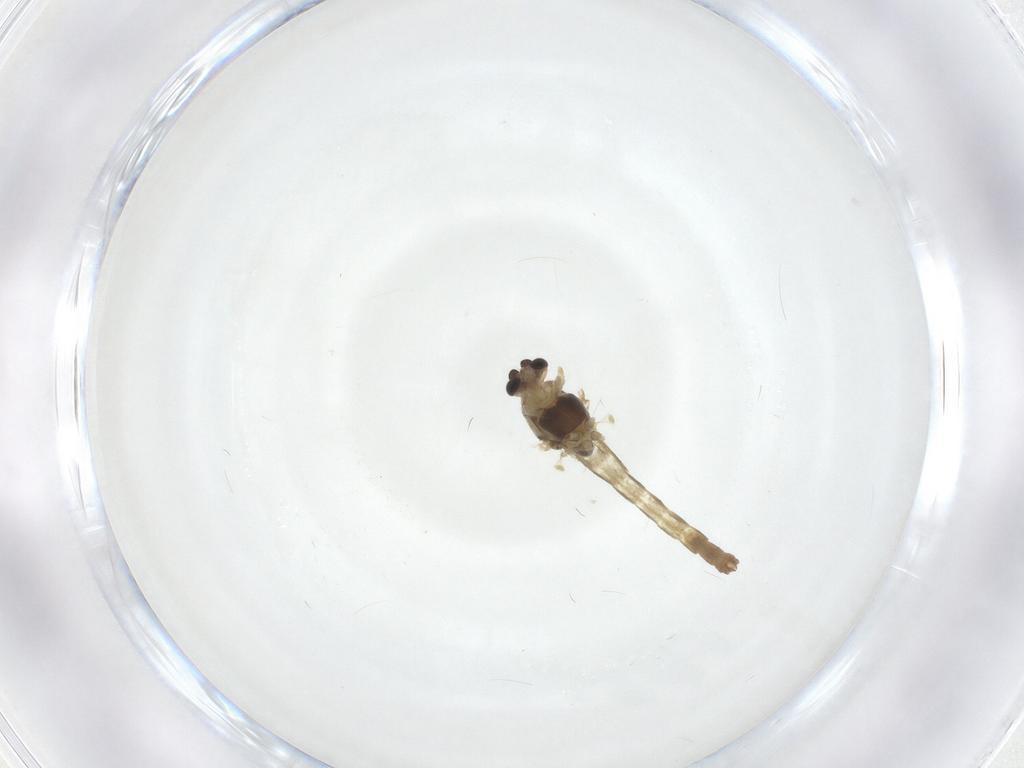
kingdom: Animalia
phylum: Arthropoda
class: Insecta
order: Diptera
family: Chironomidae
